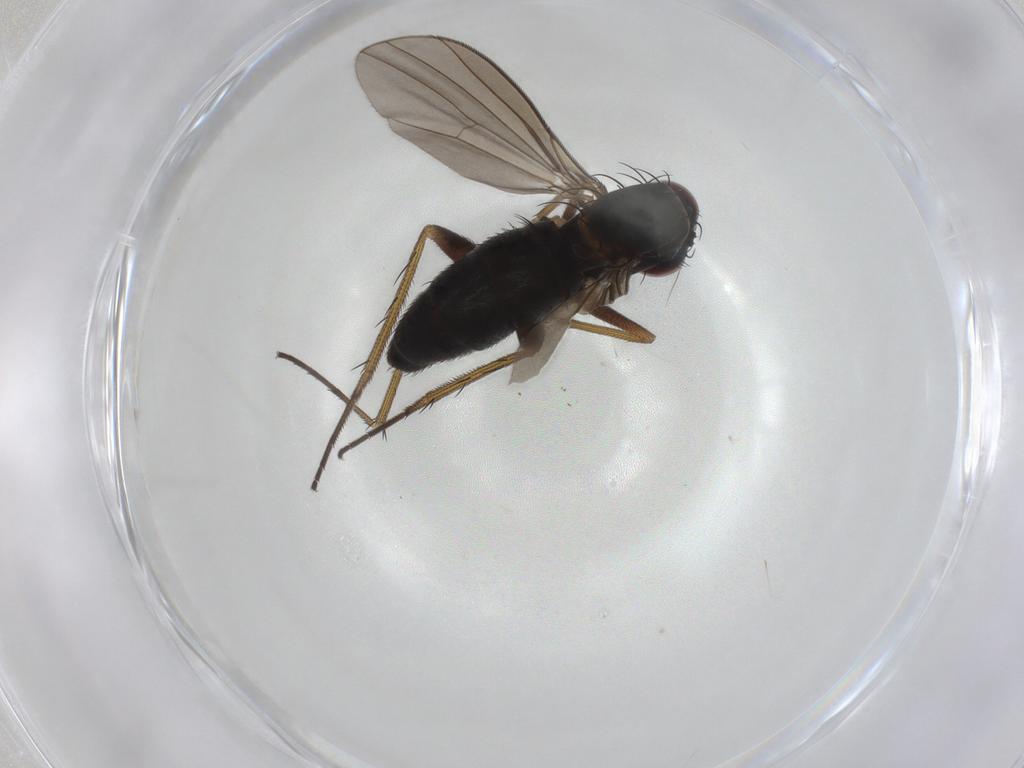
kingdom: Animalia
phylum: Arthropoda
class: Insecta
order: Diptera
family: Dolichopodidae
